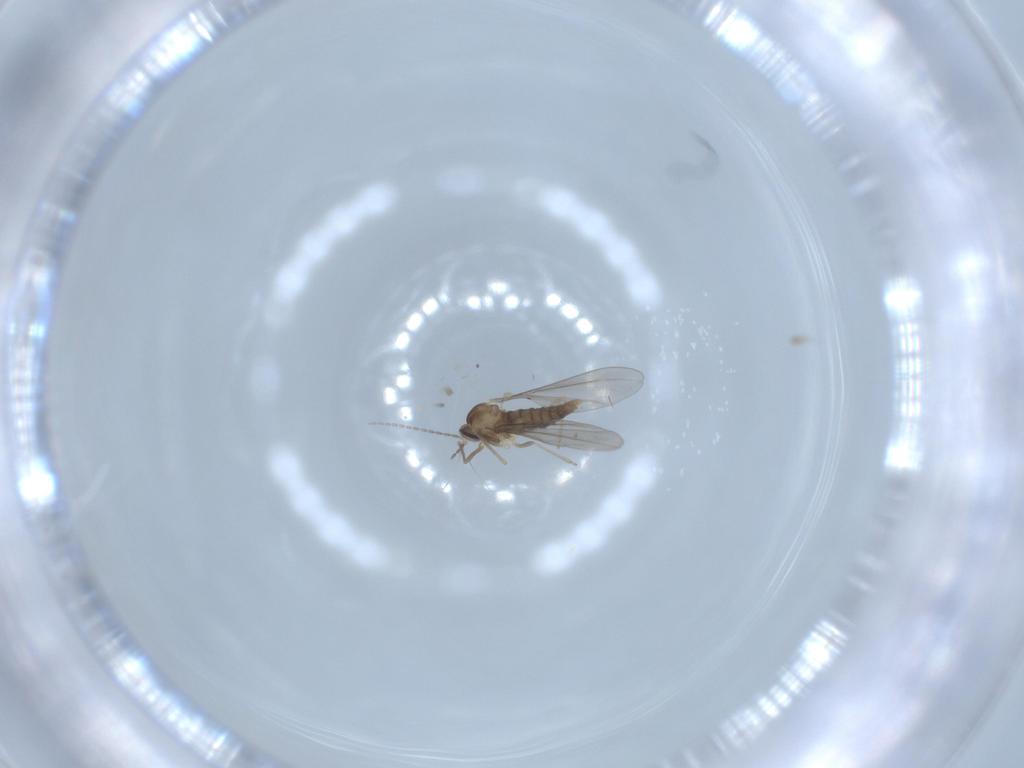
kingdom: Animalia
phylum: Arthropoda
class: Insecta
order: Diptera
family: Cecidomyiidae
